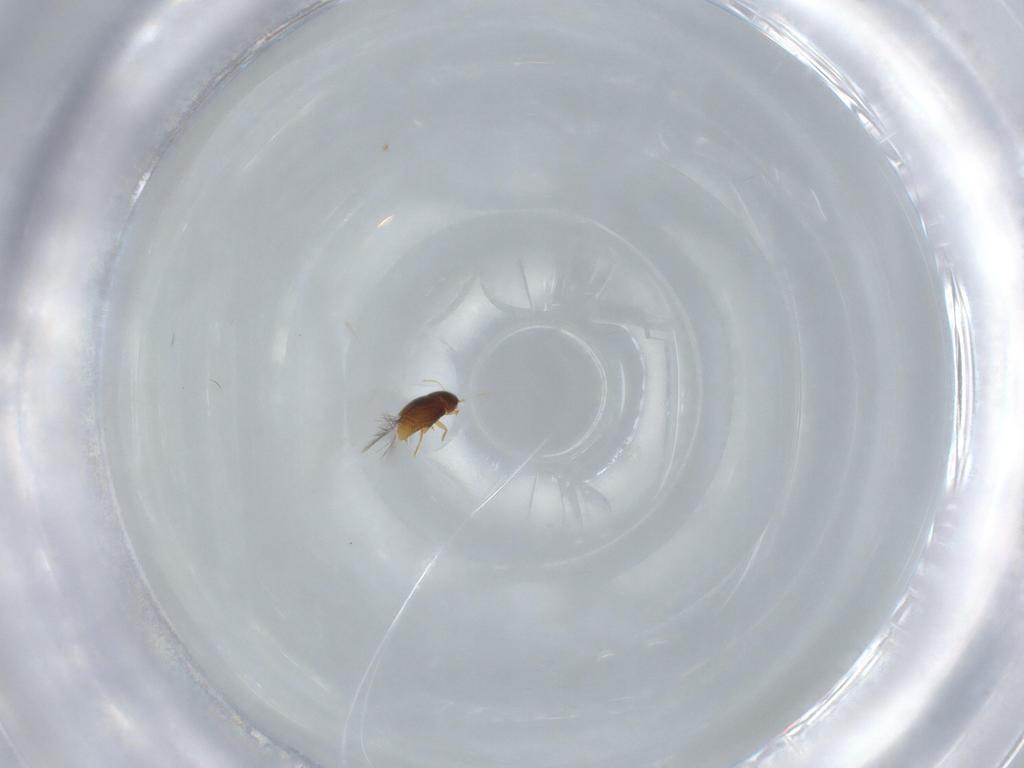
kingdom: Animalia
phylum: Arthropoda
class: Insecta
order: Coleoptera
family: Ptiliidae
